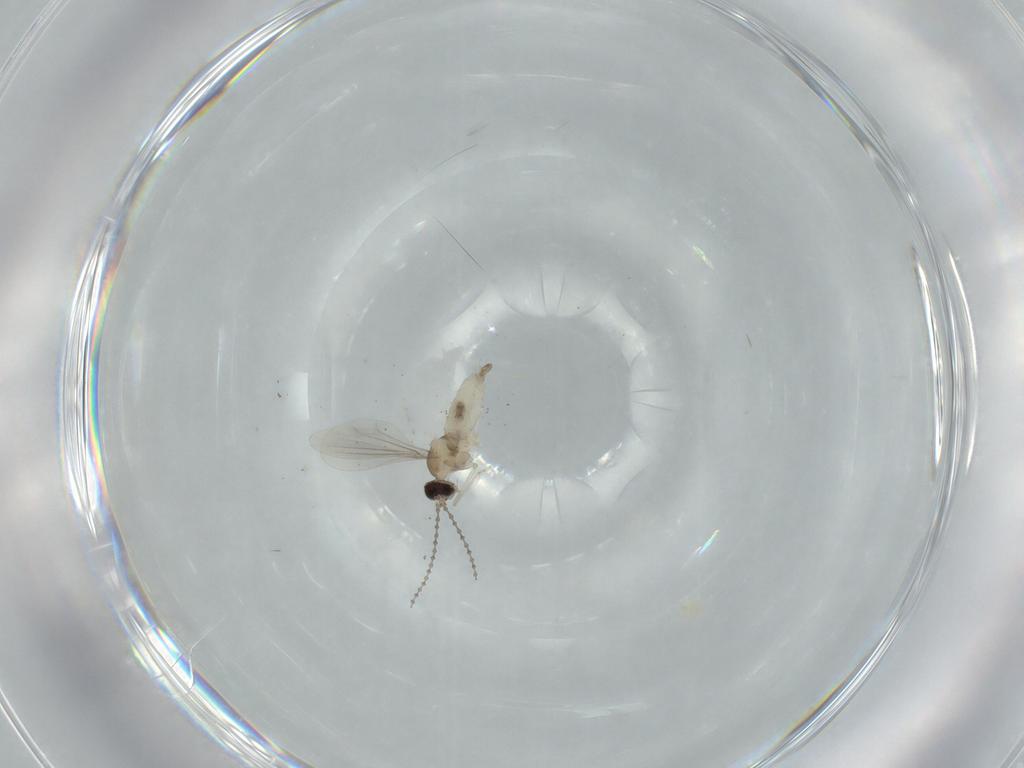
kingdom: Animalia
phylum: Arthropoda
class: Insecta
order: Diptera
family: Cecidomyiidae
